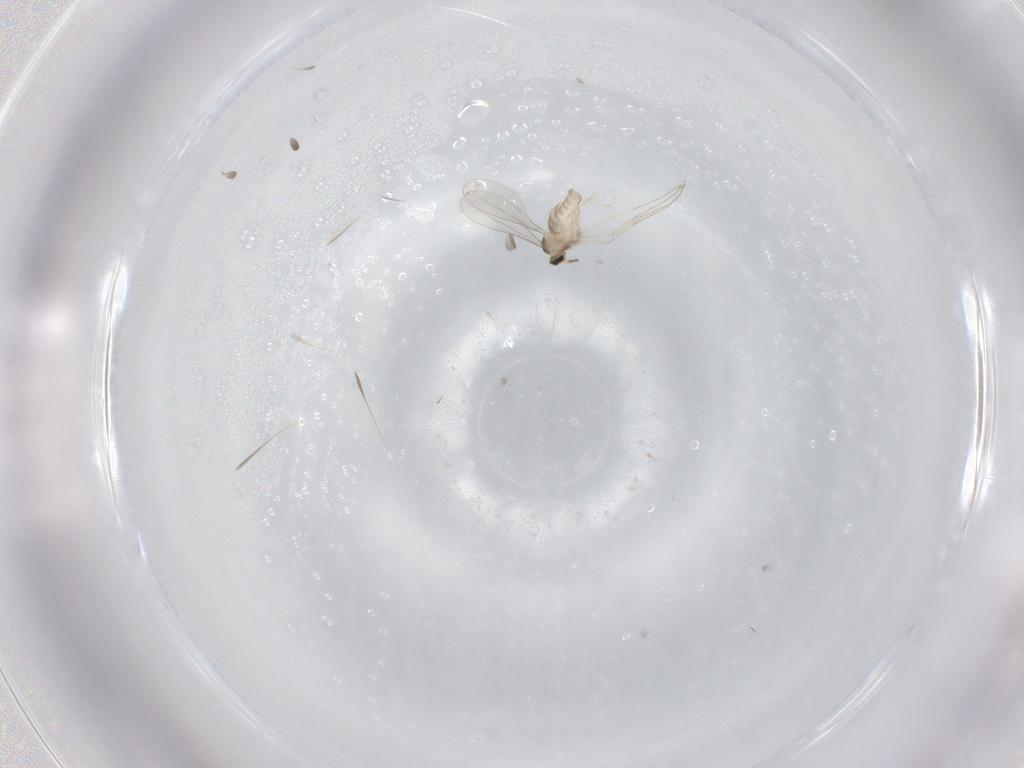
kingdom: Animalia
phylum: Arthropoda
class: Insecta
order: Diptera
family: Cecidomyiidae
